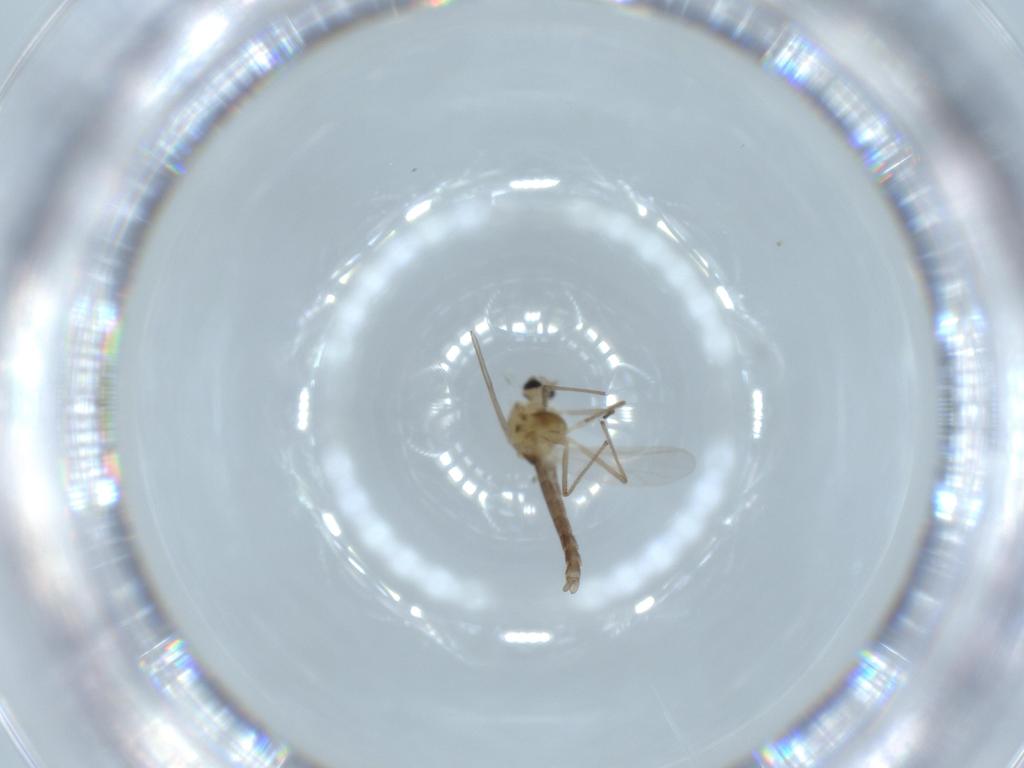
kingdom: Animalia
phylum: Arthropoda
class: Insecta
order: Diptera
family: Chironomidae
